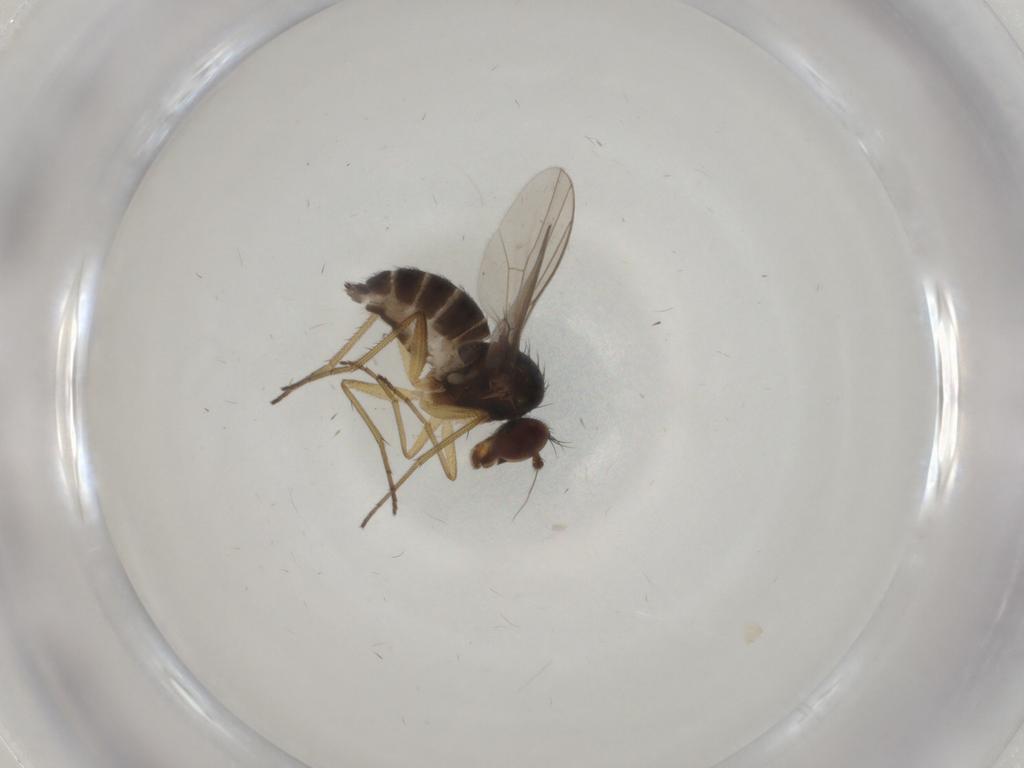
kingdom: Animalia
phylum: Arthropoda
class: Insecta
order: Diptera
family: Dolichopodidae
